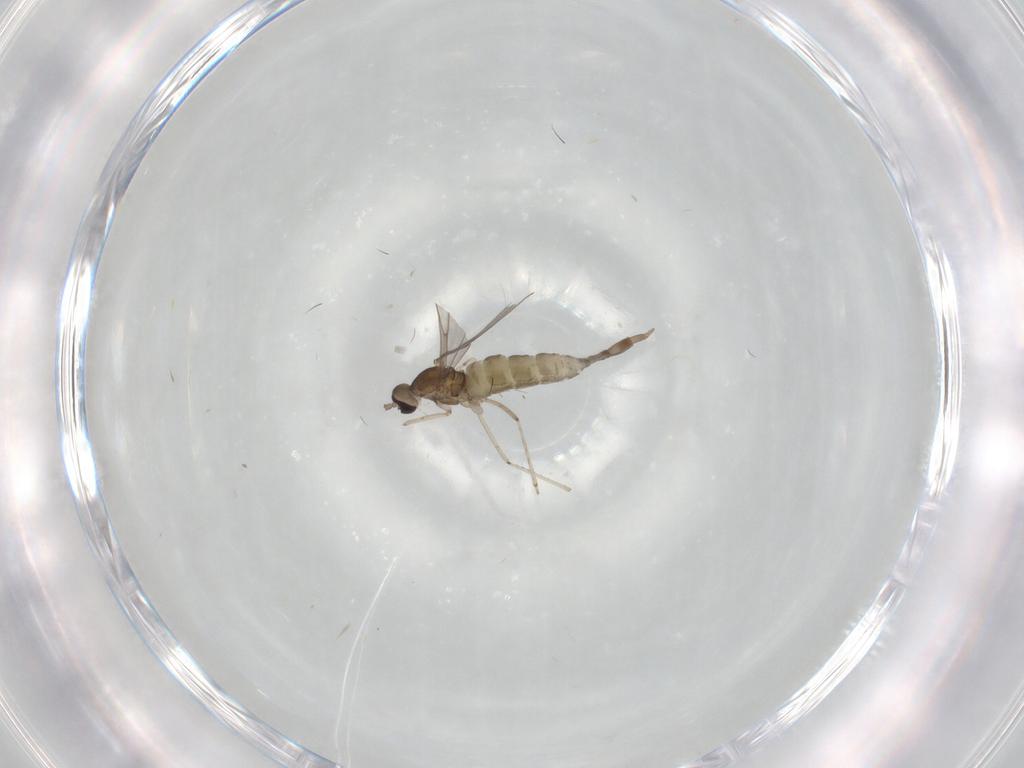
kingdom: Animalia
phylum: Arthropoda
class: Insecta
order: Diptera
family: Cecidomyiidae
